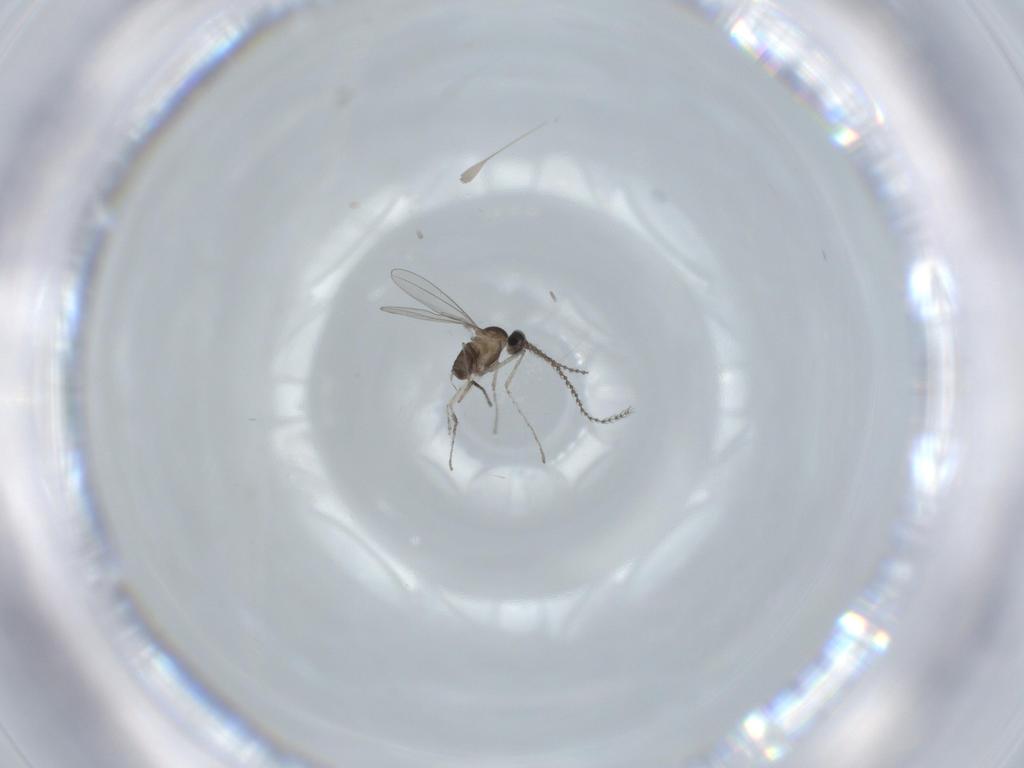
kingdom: Animalia
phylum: Arthropoda
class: Insecta
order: Diptera
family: Cecidomyiidae
